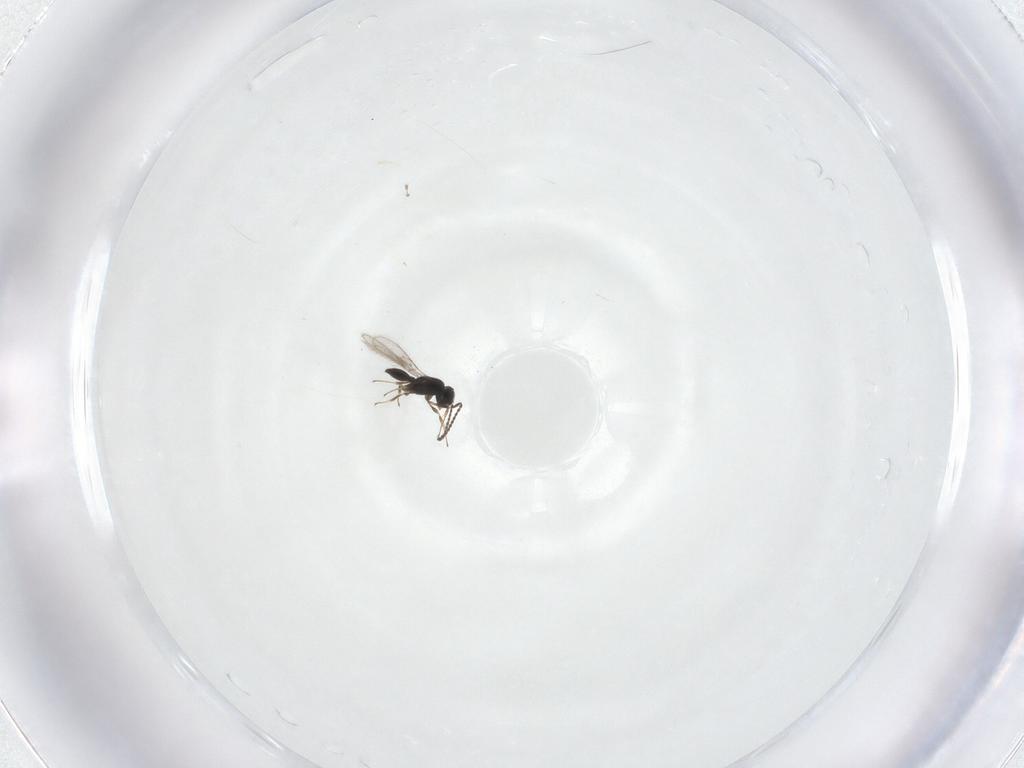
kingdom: Animalia
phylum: Arthropoda
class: Insecta
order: Hymenoptera
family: Scelionidae
